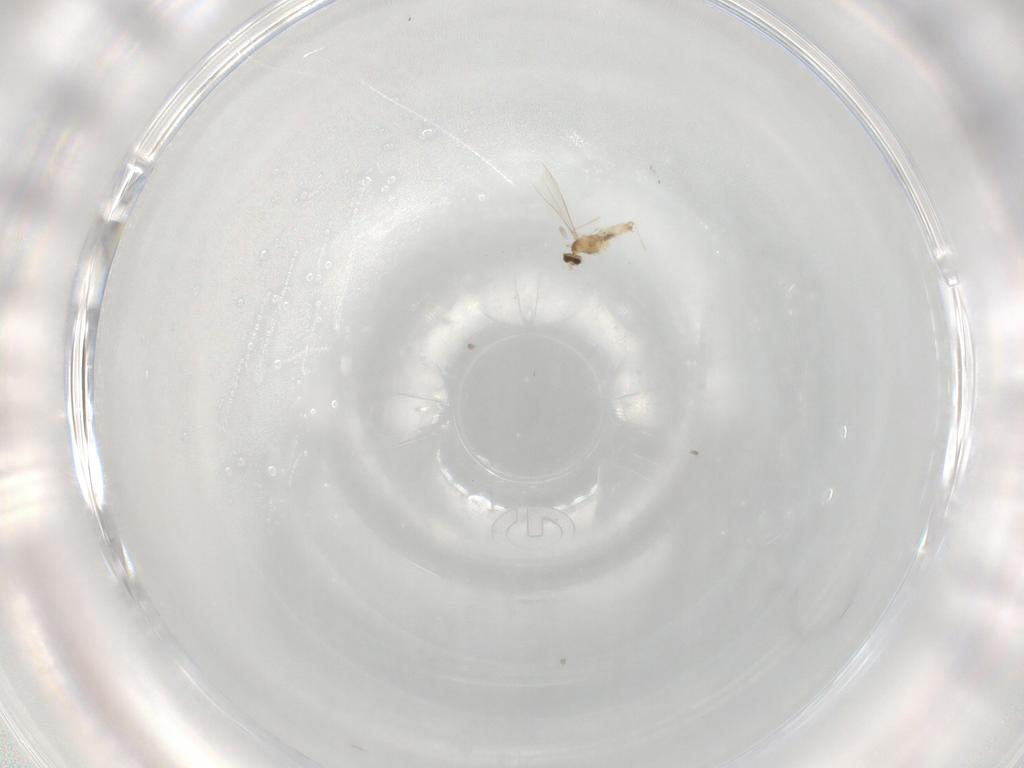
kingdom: Animalia
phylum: Arthropoda
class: Insecta
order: Diptera
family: Cecidomyiidae
